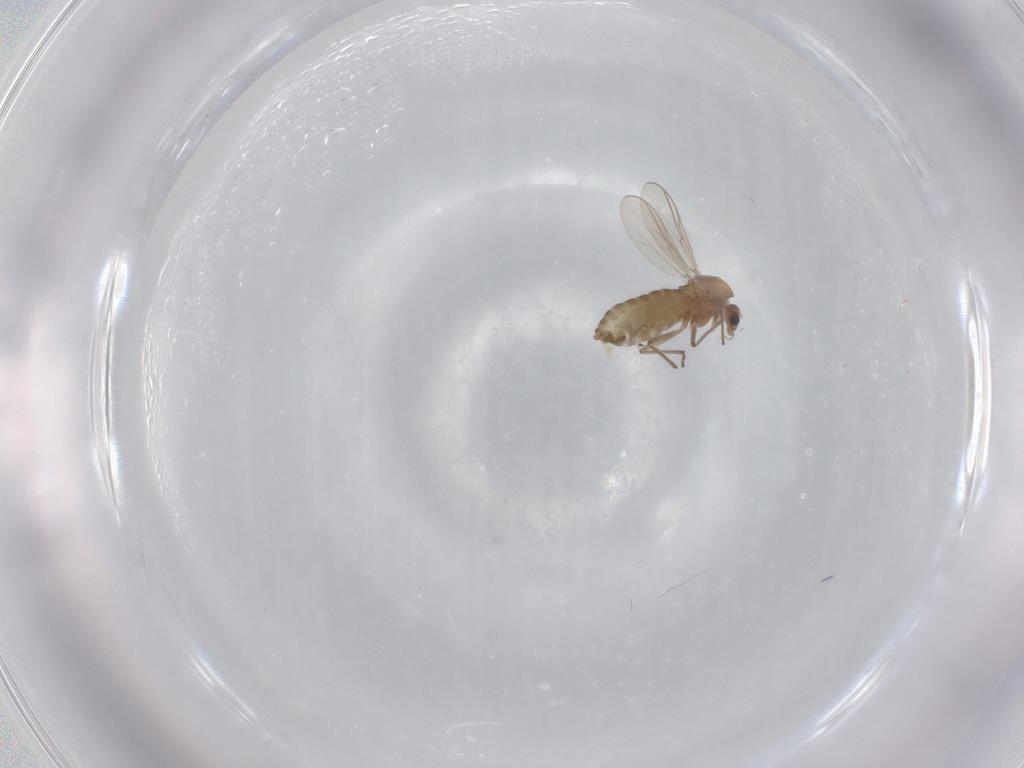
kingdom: Animalia
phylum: Arthropoda
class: Insecta
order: Diptera
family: Chironomidae
